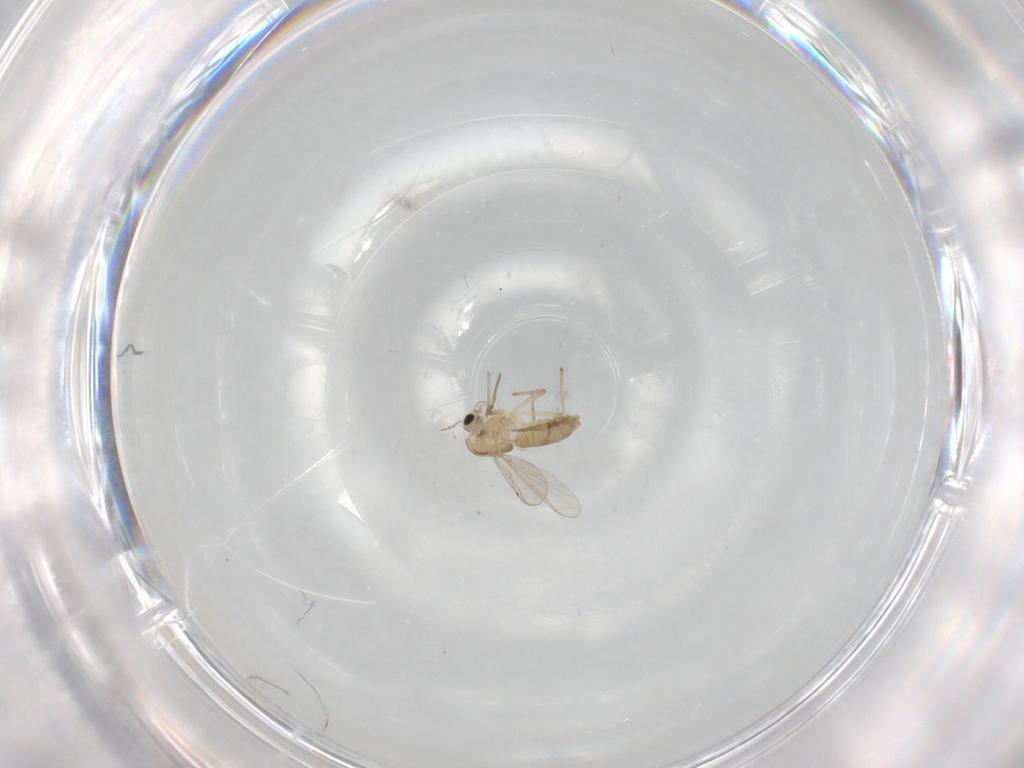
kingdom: Animalia
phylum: Arthropoda
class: Insecta
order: Diptera
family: Chironomidae
